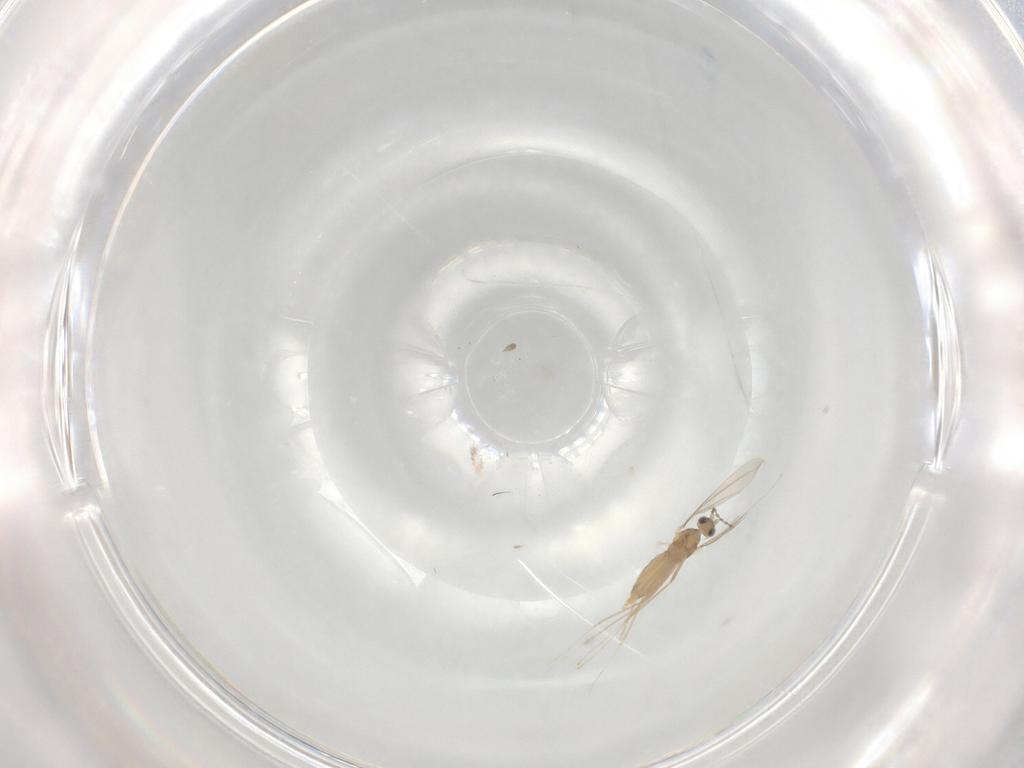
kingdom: Animalia
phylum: Arthropoda
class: Insecta
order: Diptera
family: Cecidomyiidae
